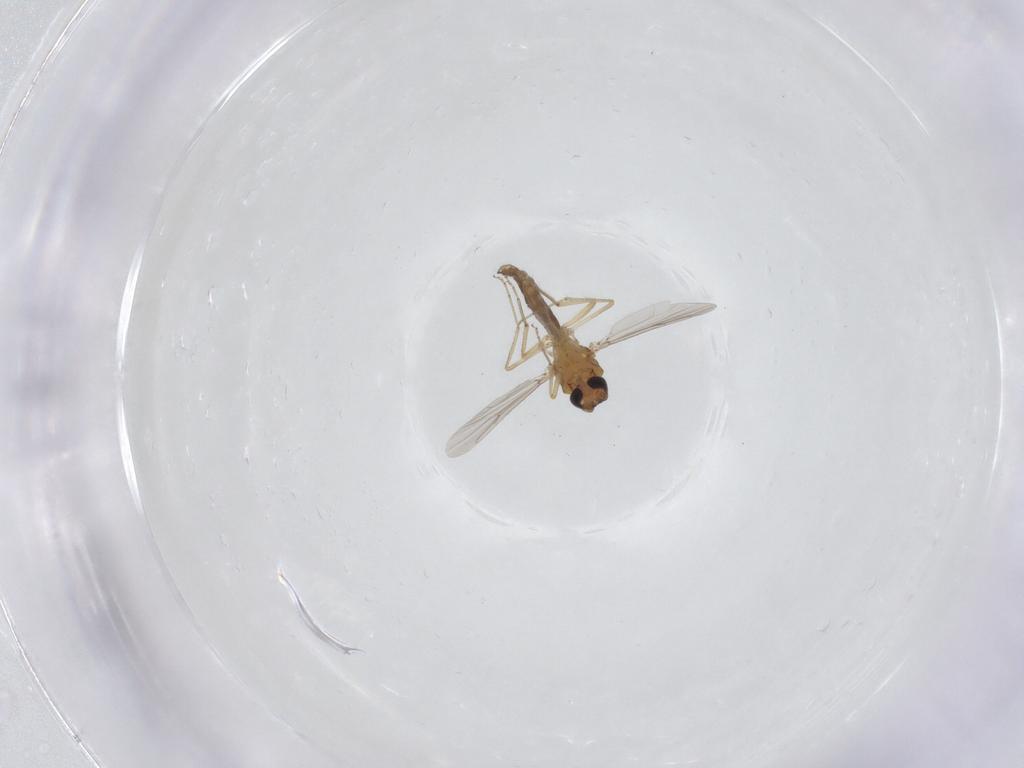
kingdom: Animalia
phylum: Arthropoda
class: Insecta
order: Diptera
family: Ceratopogonidae
